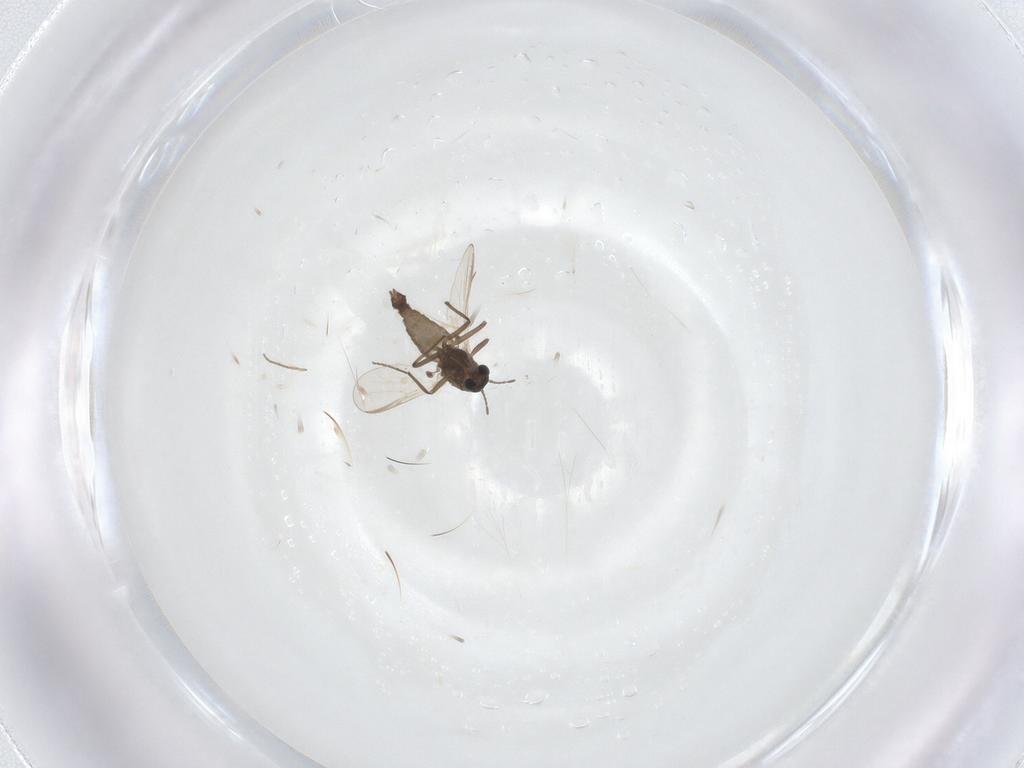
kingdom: Animalia
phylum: Arthropoda
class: Insecta
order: Diptera
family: Chironomidae
